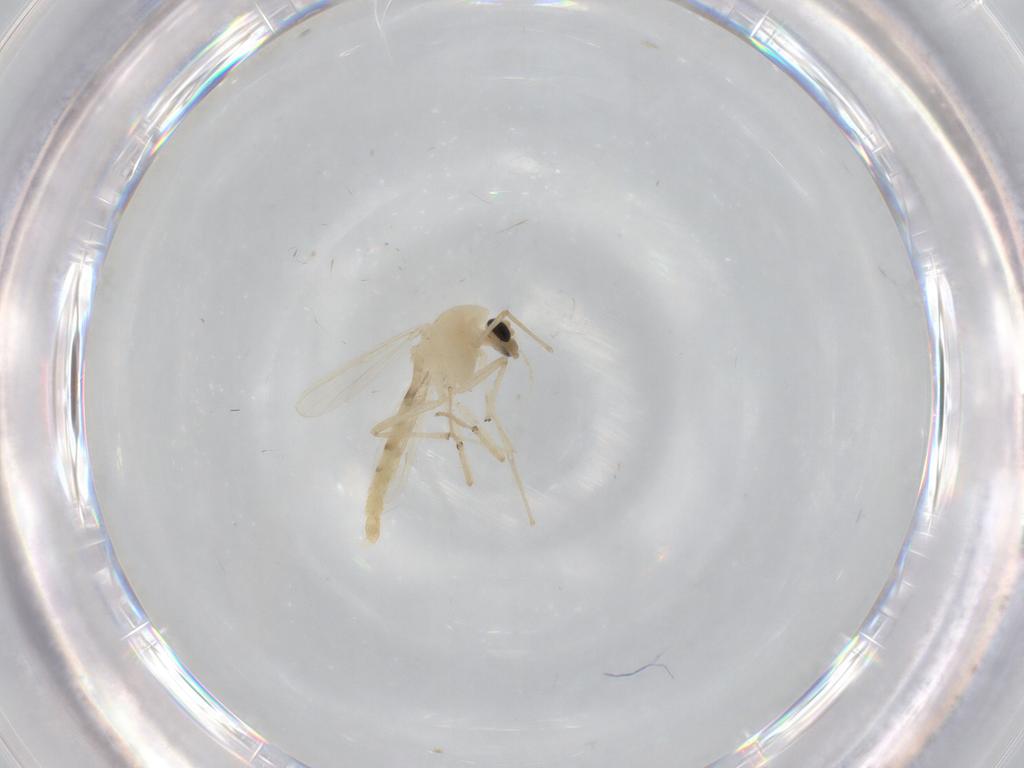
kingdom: Animalia
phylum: Arthropoda
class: Insecta
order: Diptera
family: Chironomidae
